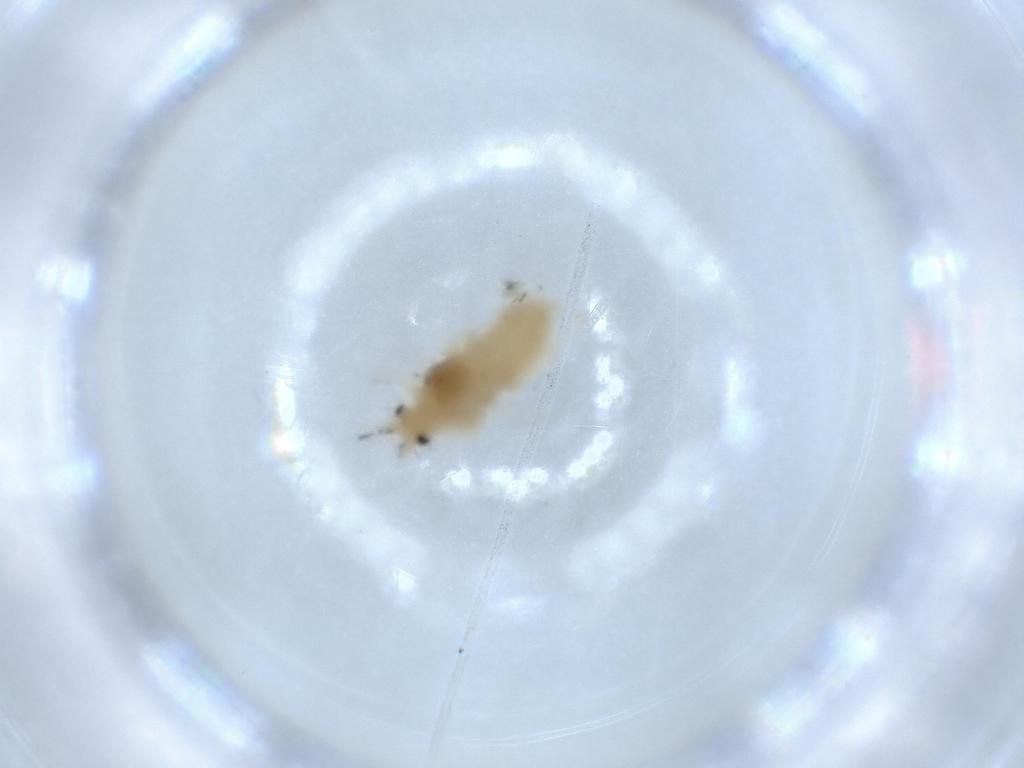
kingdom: Animalia
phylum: Arthropoda
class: Insecta
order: Hemiptera
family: Aphididae
